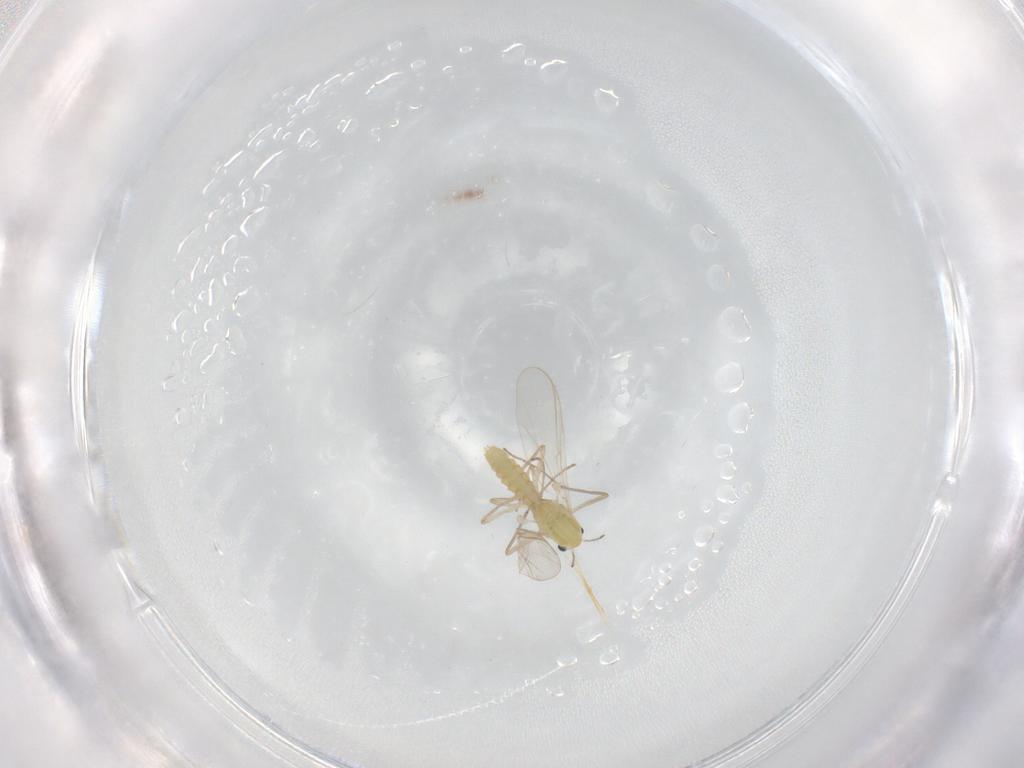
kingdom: Animalia
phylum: Arthropoda
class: Insecta
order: Diptera
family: Chironomidae
